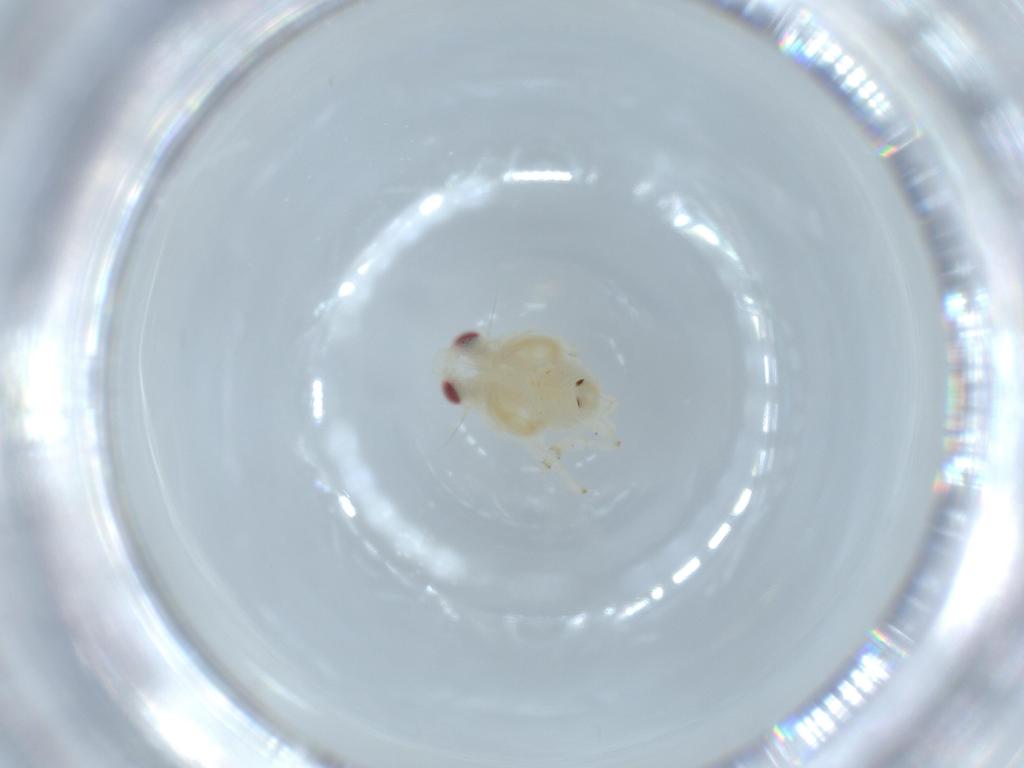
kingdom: Animalia
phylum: Arthropoda
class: Insecta
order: Hemiptera
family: Nogodinidae
